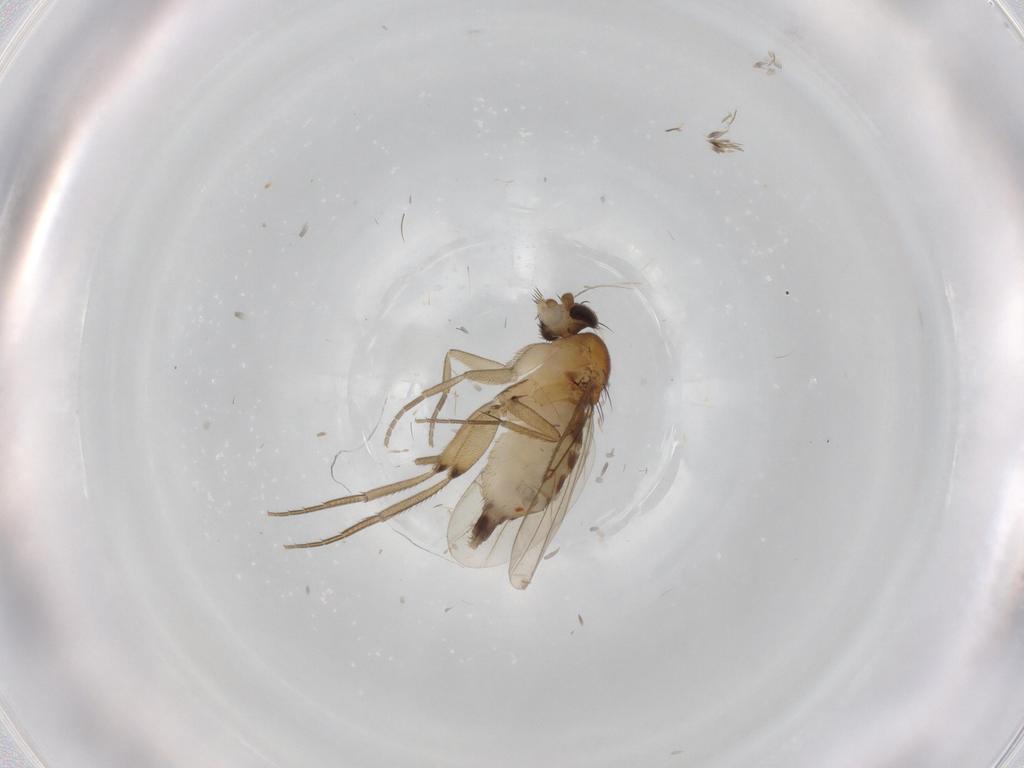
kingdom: Animalia
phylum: Arthropoda
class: Insecta
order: Diptera
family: Phoridae
